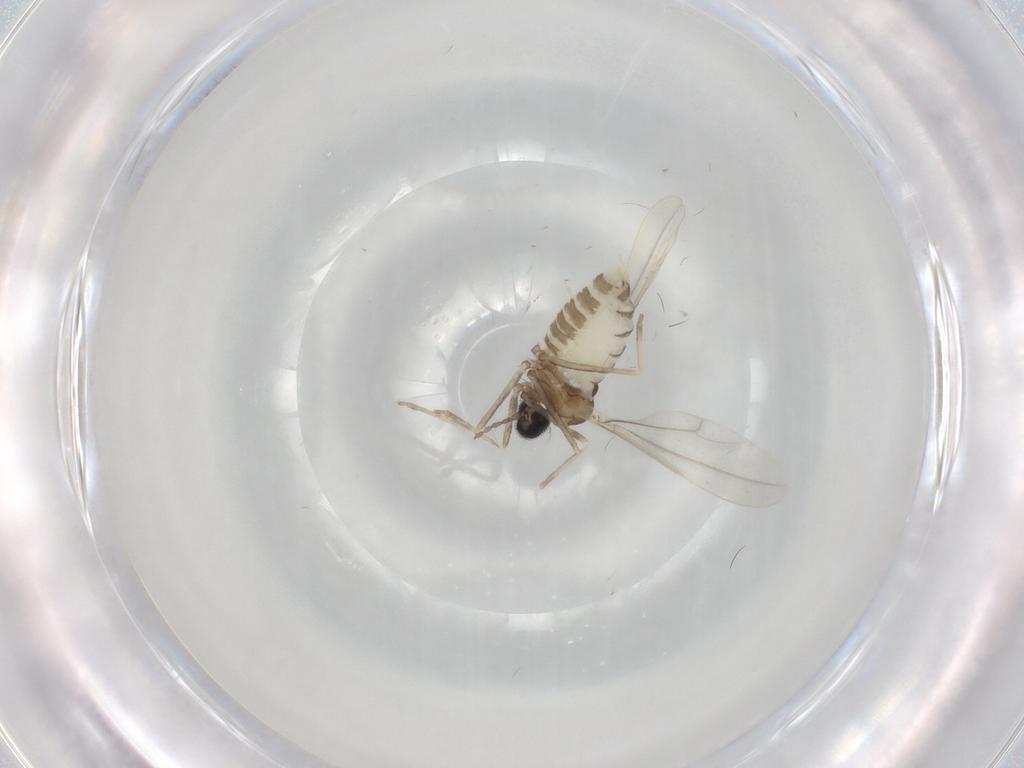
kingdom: Animalia
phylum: Arthropoda
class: Insecta
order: Diptera
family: Cecidomyiidae
